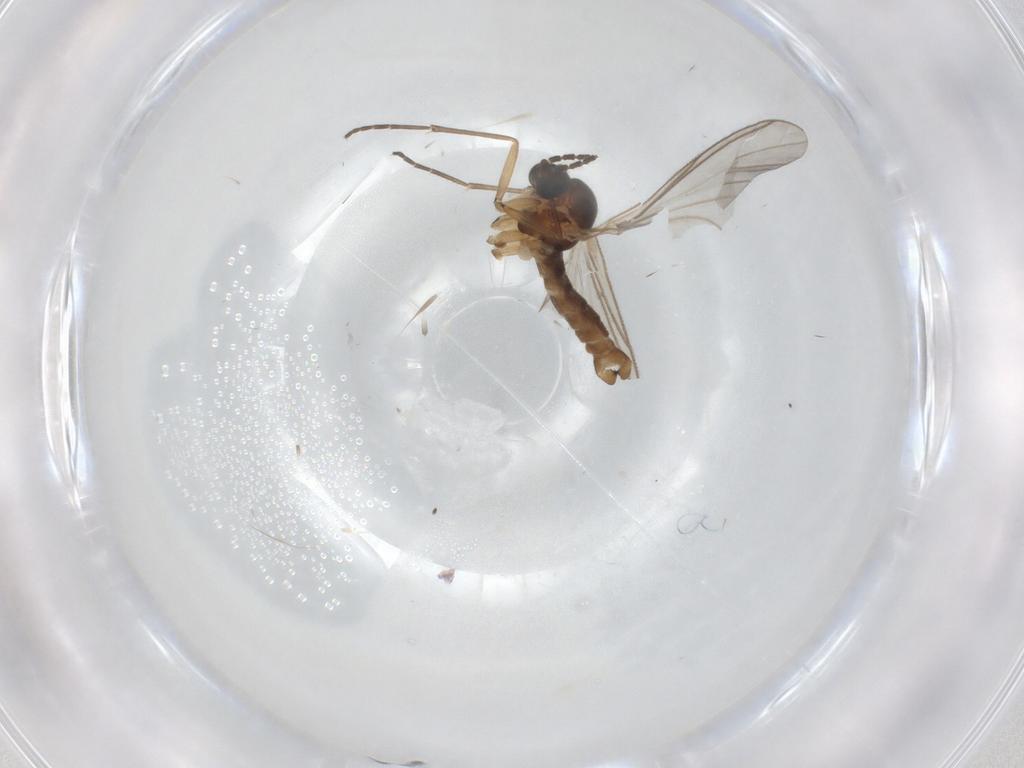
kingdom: Animalia
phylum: Arthropoda
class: Insecta
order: Diptera
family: Sciaridae
